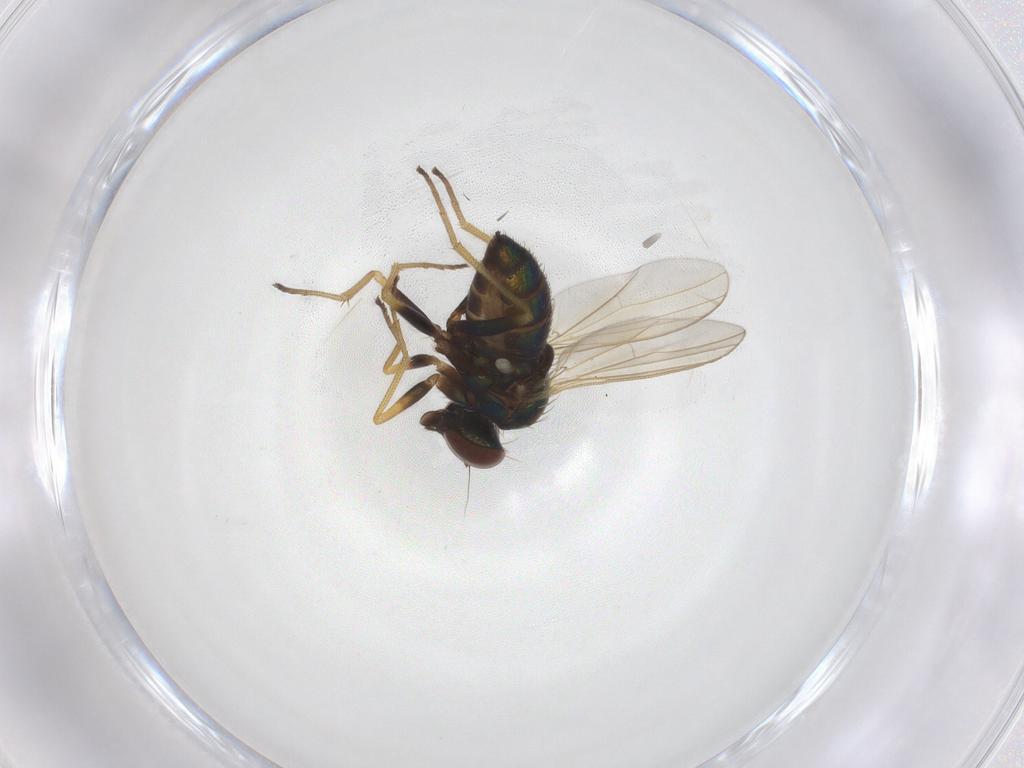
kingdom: Animalia
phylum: Arthropoda
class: Insecta
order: Diptera
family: Dolichopodidae
